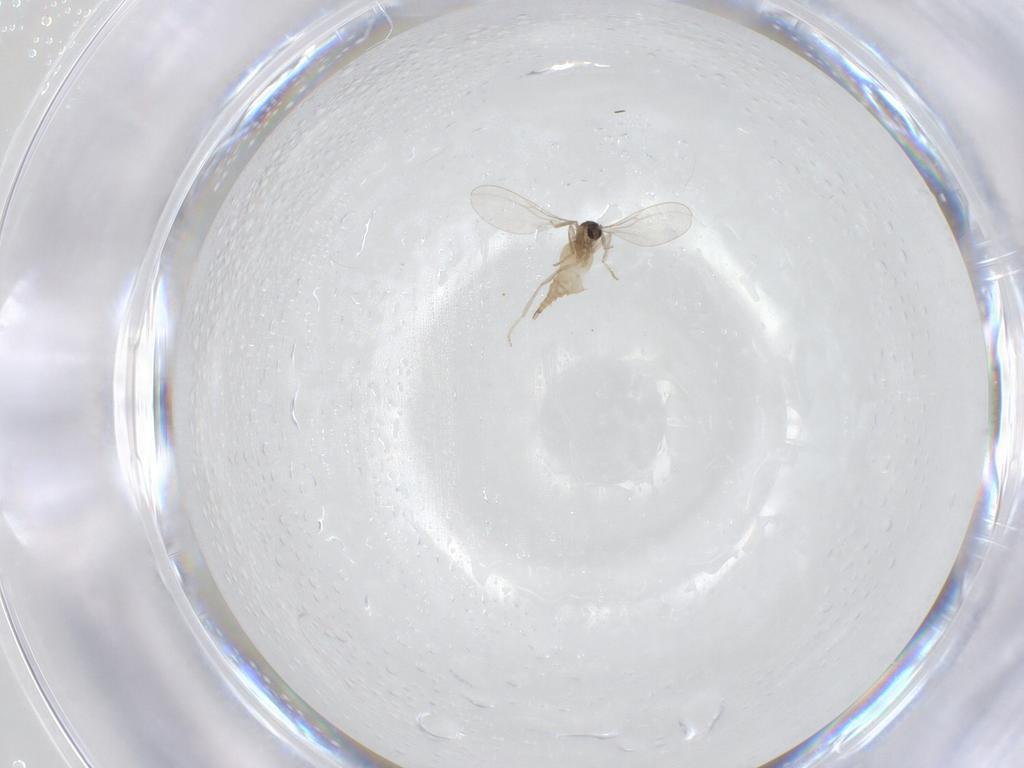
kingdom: Animalia
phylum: Arthropoda
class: Insecta
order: Diptera
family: Cecidomyiidae
